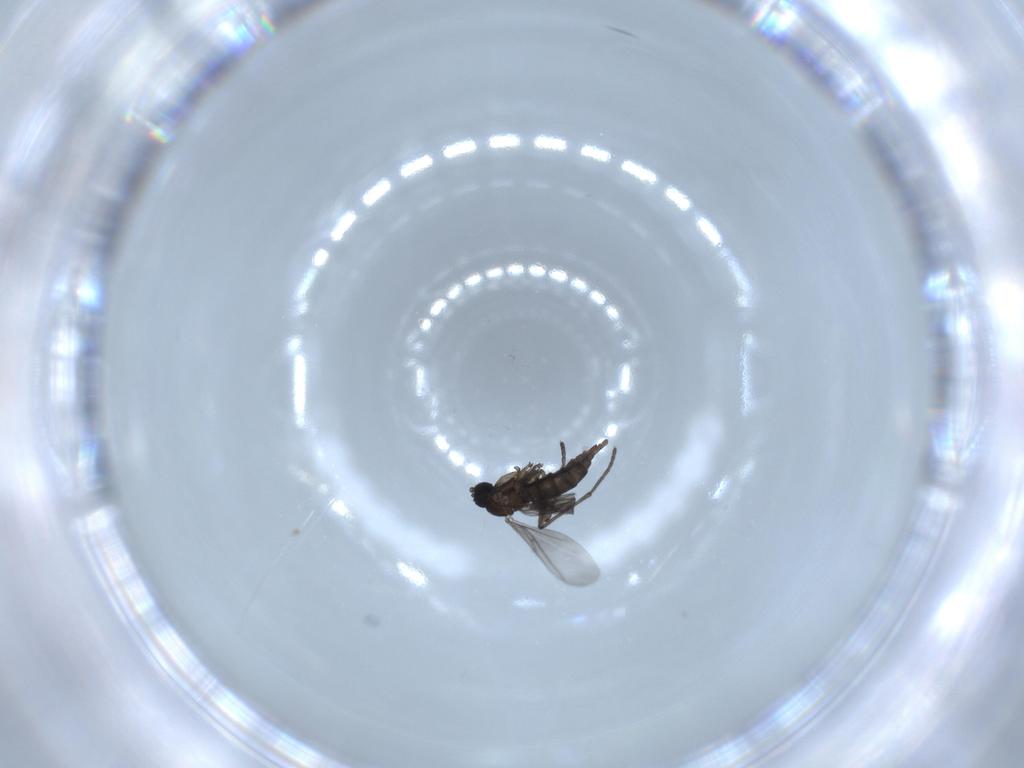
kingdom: Animalia
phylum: Arthropoda
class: Insecta
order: Diptera
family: Sciaridae
